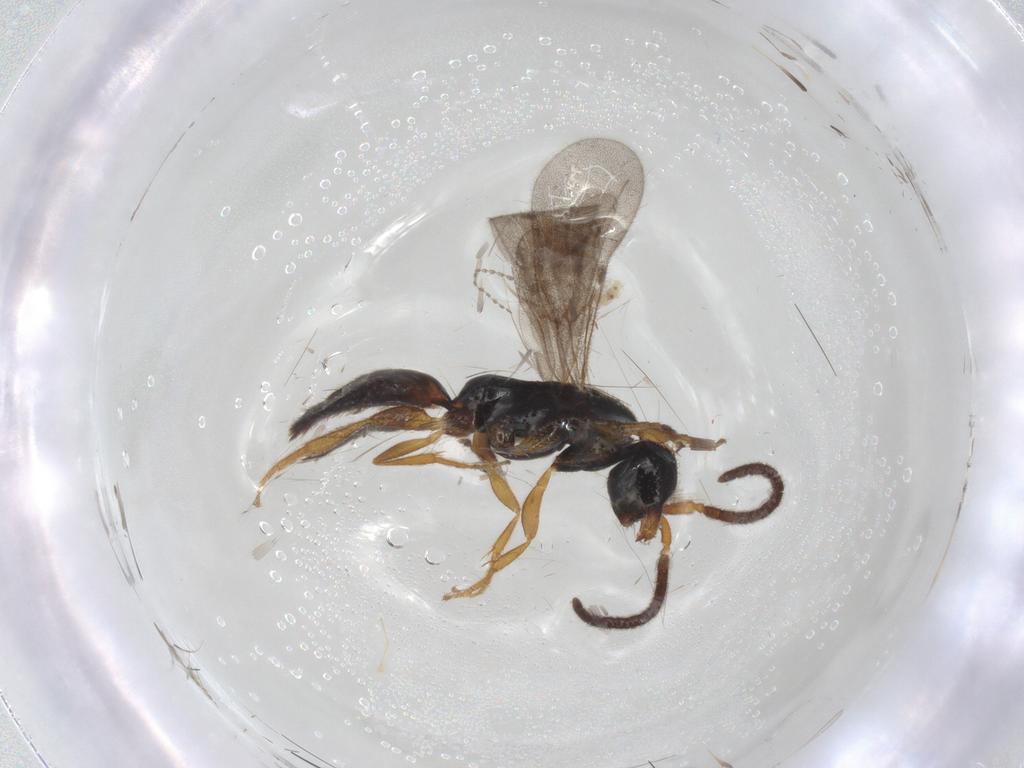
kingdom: Animalia
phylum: Arthropoda
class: Insecta
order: Hymenoptera
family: Bethylidae
